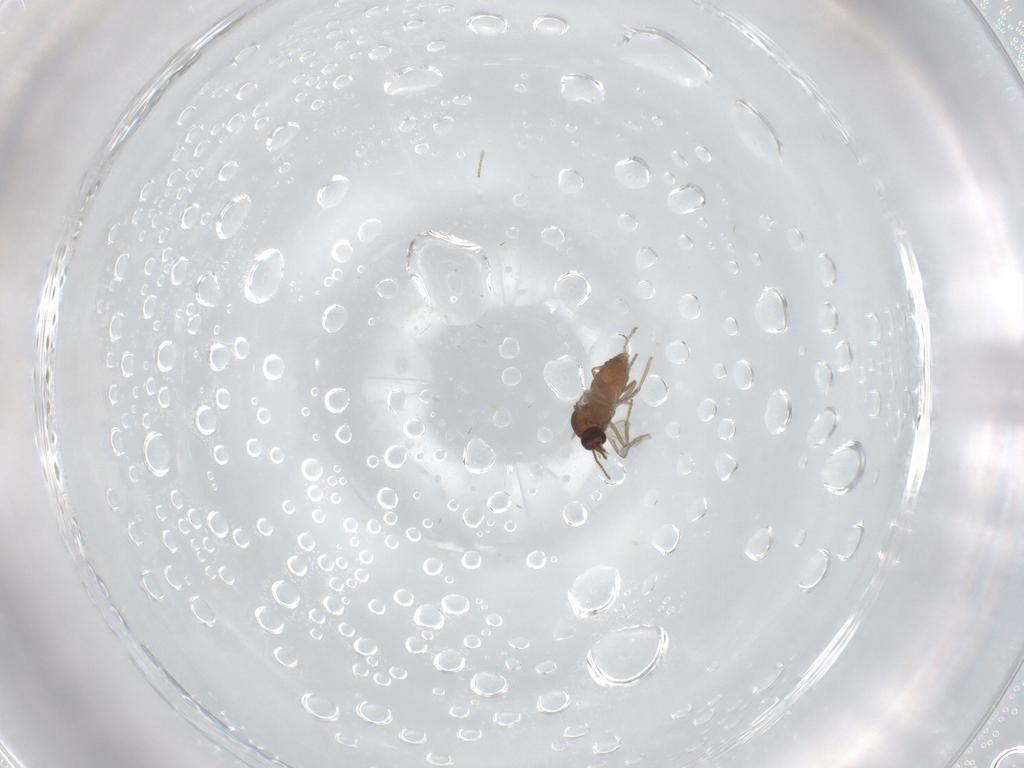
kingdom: Animalia
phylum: Arthropoda
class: Insecta
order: Diptera
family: Ceratopogonidae
